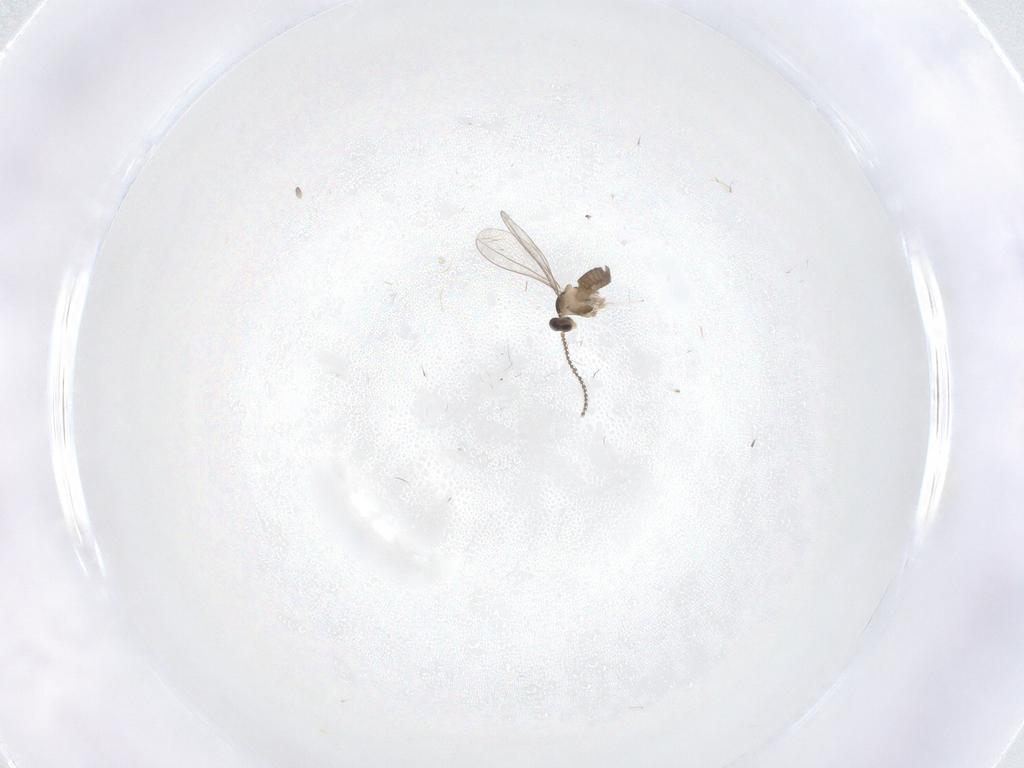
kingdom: Animalia
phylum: Arthropoda
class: Insecta
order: Diptera
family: Cecidomyiidae
